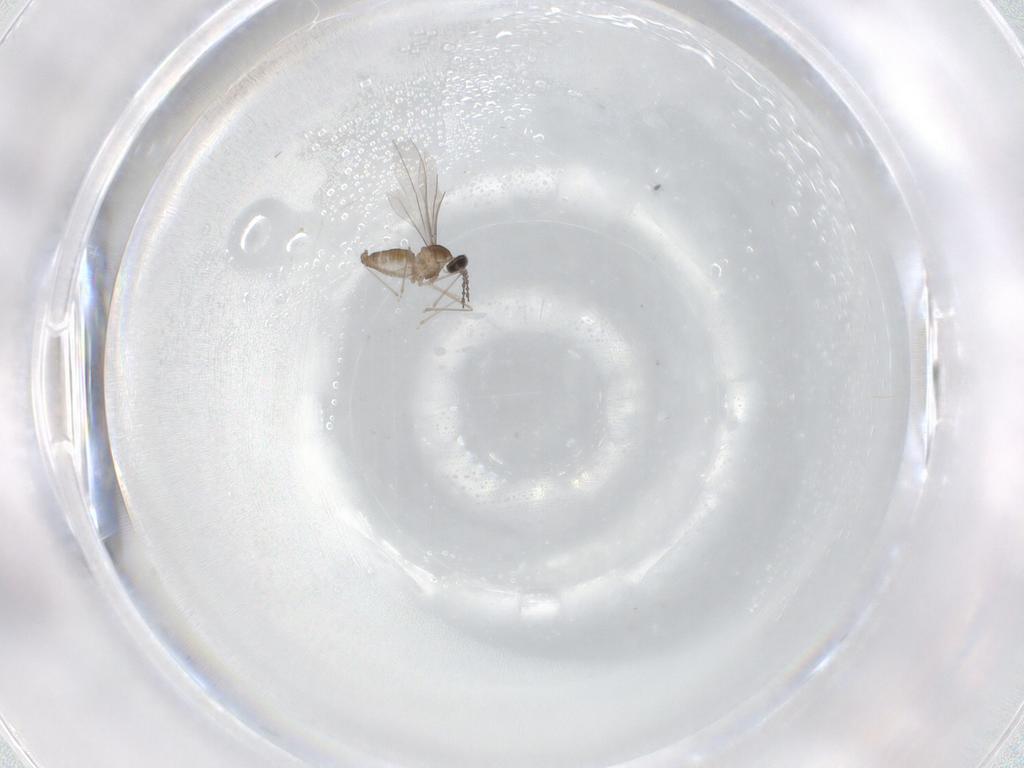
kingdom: Animalia
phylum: Arthropoda
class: Insecta
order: Diptera
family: Cecidomyiidae
